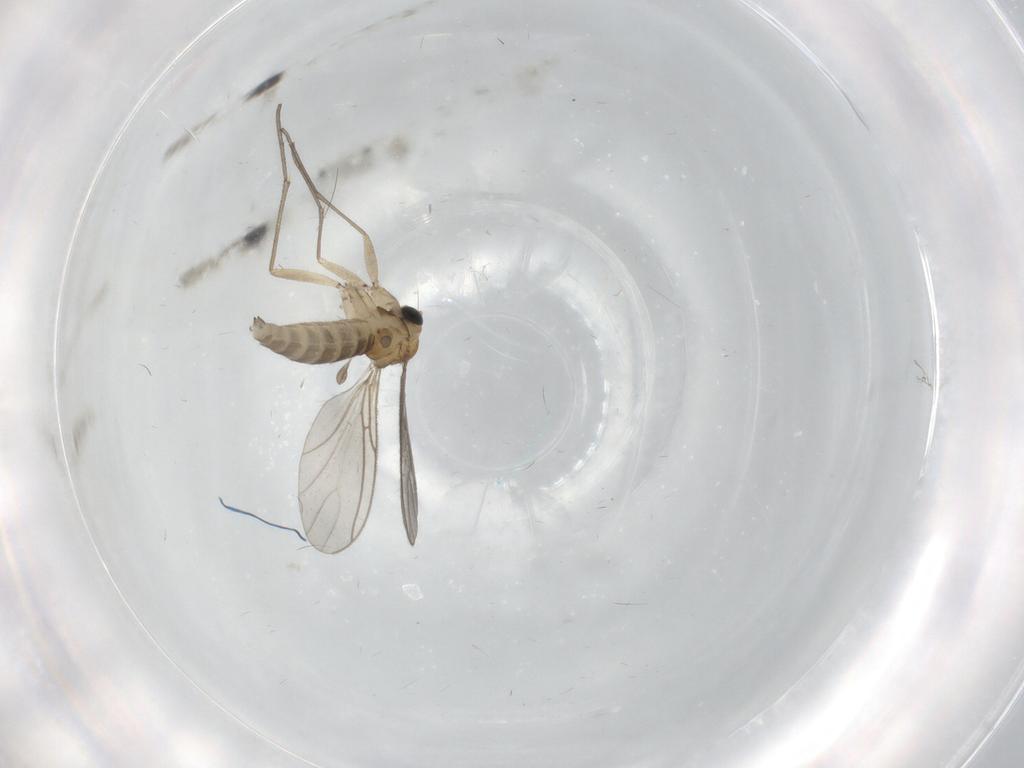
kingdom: Animalia
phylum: Arthropoda
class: Insecta
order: Diptera
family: Sciaridae
